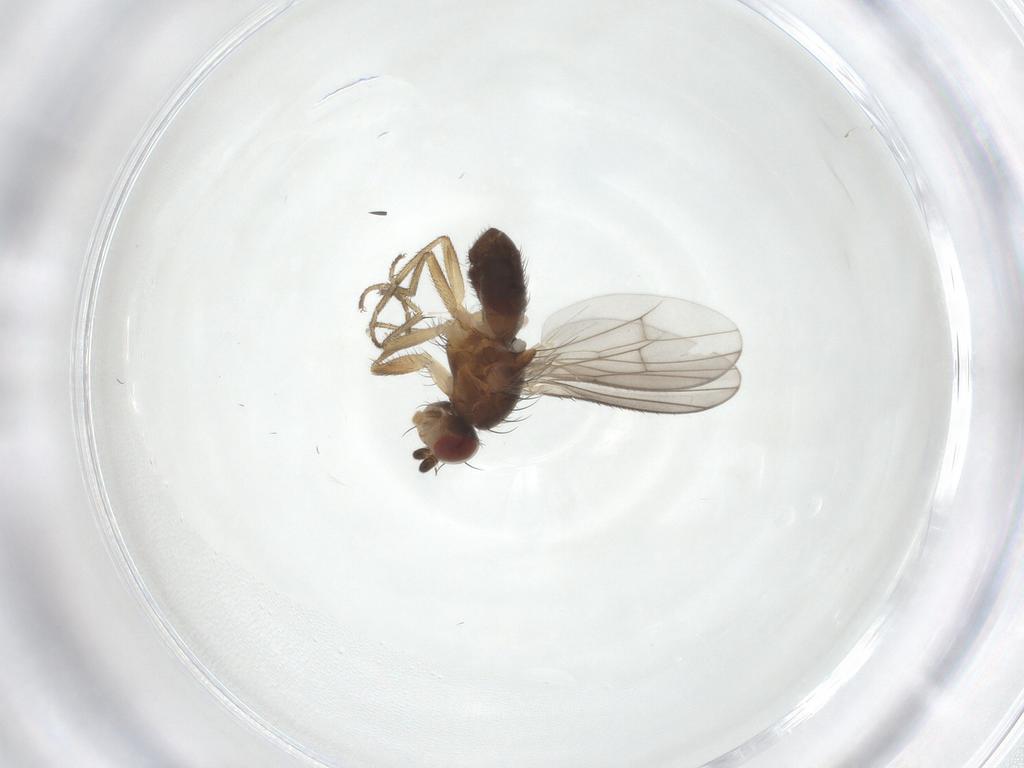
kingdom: Animalia
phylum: Arthropoda
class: Insecta
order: Diptera
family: Heleomyzidae
